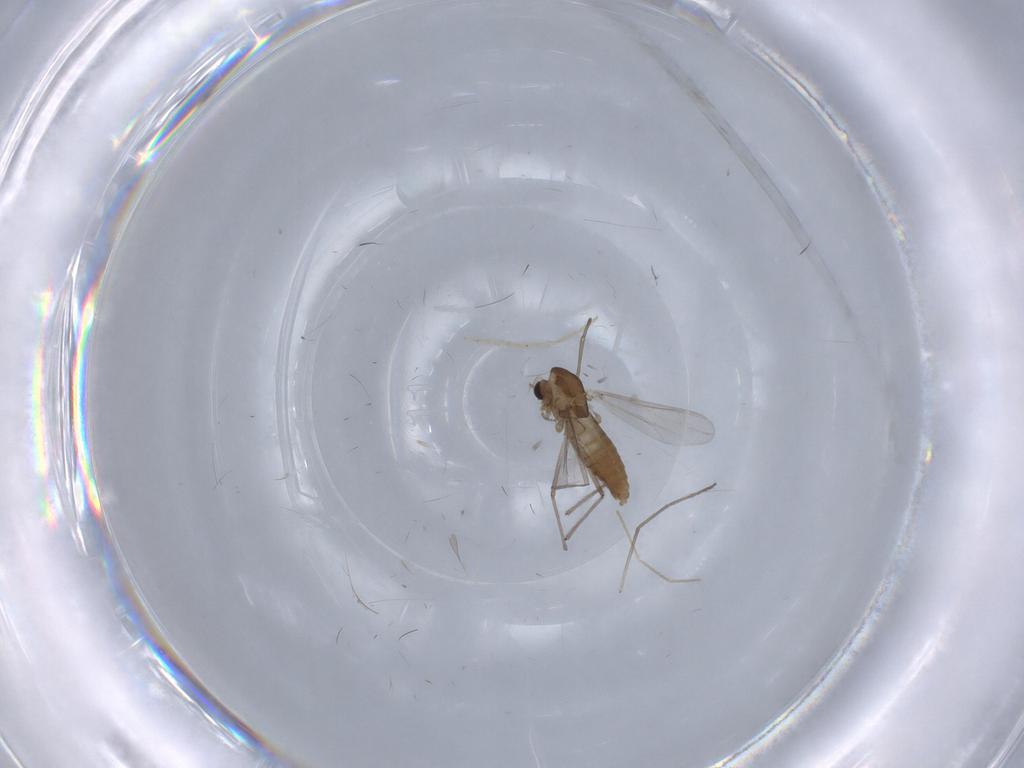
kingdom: Animalia
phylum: Arthropoda
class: Insecta
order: Diptera
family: Chironomidae
